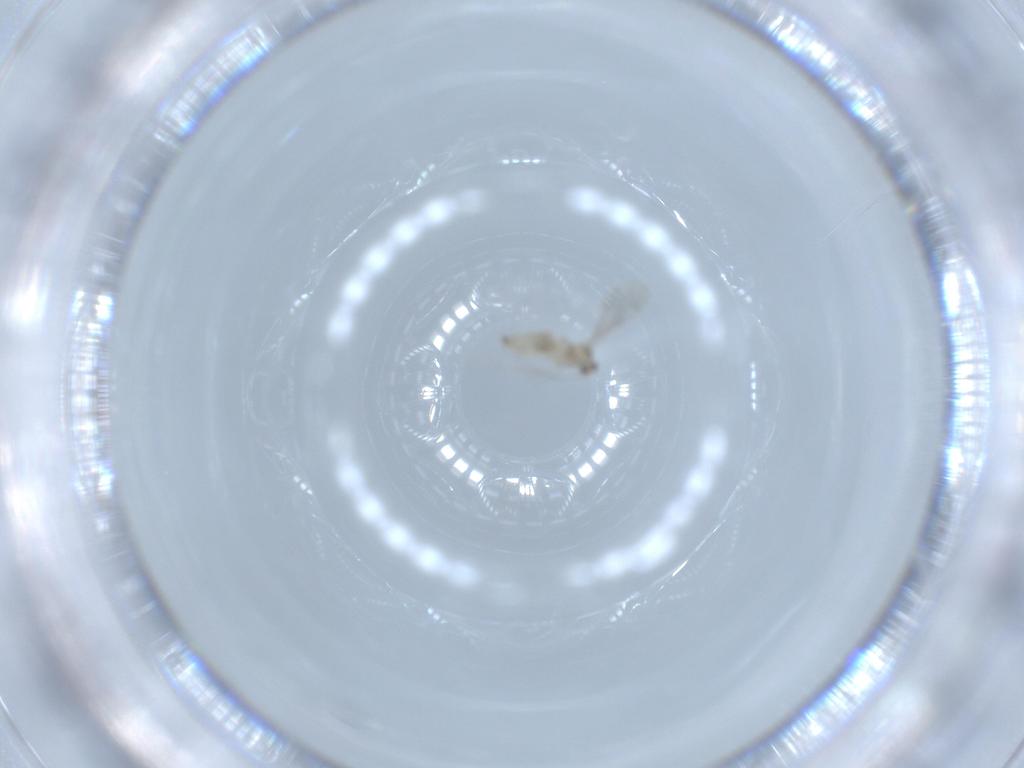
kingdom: Animalia
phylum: Arthropoda
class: Insecta
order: Diptera
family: Cecidomyiidae
